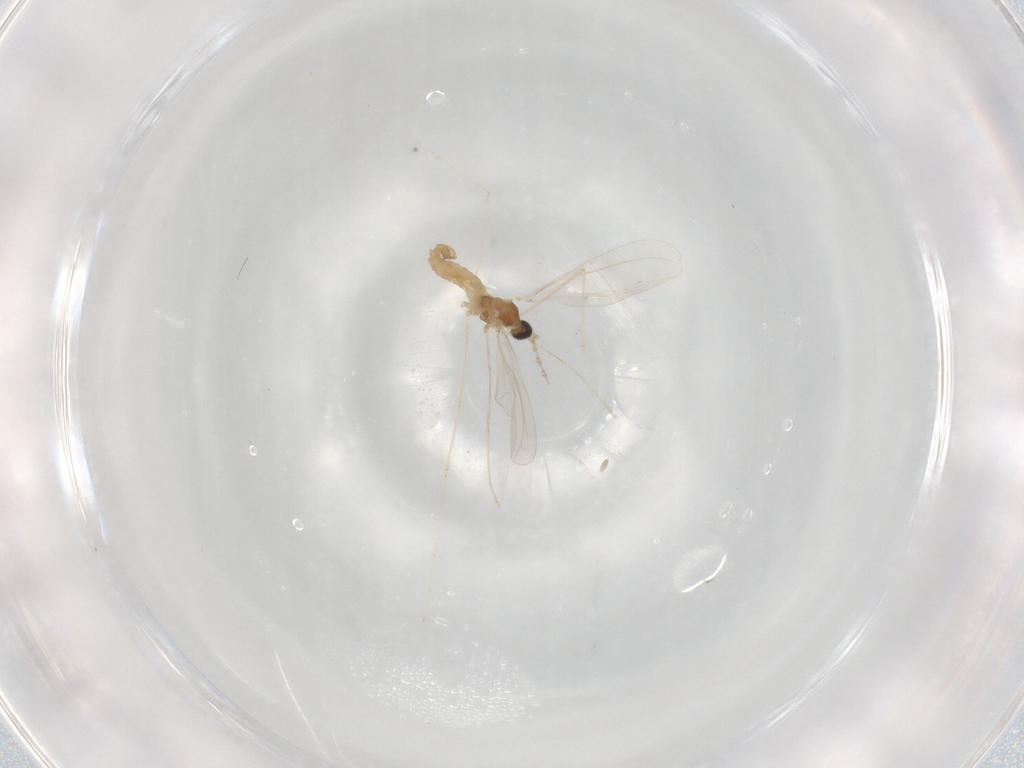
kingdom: Animalia
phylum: Arthropoda
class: Insecta
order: Diptera
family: Cecidomyiidae
